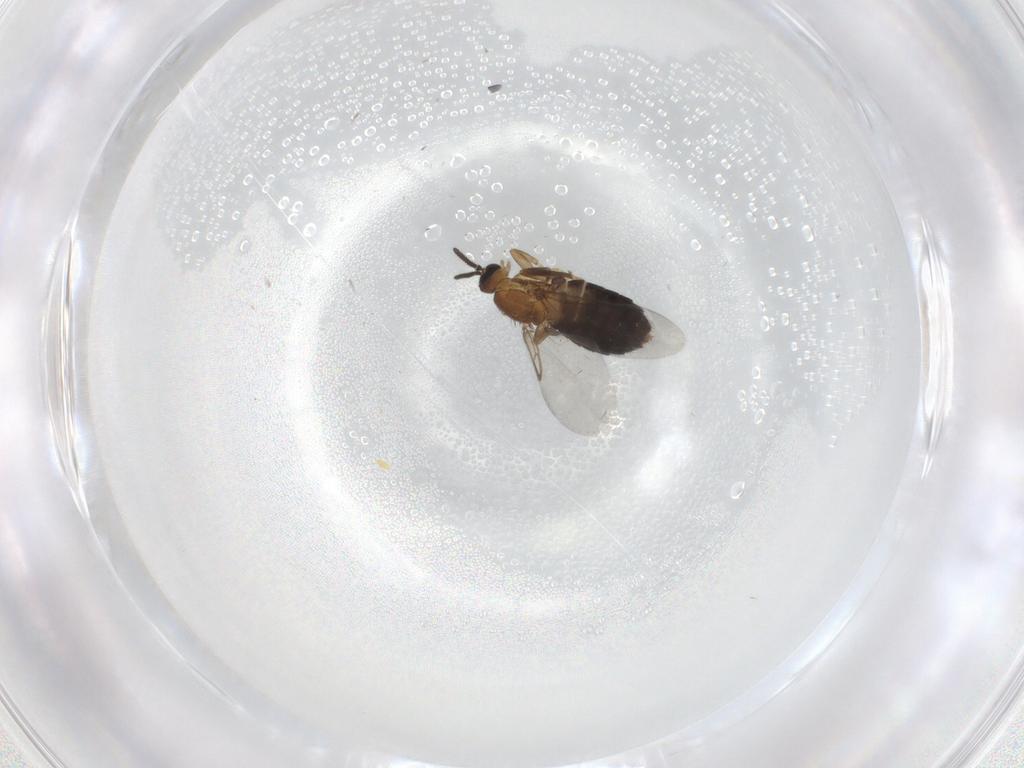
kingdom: Animalia
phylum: Arthropoda
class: Insecta
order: Diptera
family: Scatopsidae
